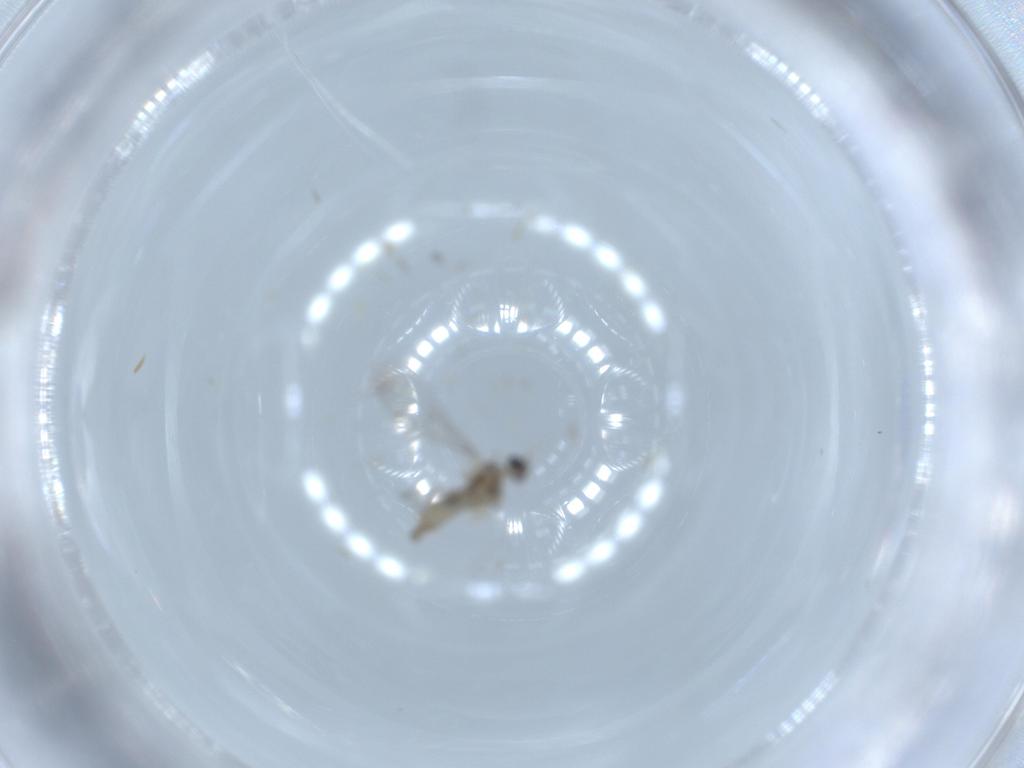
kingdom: Animalia
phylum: Arthropoda
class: Insecta
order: Diptera
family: Cecidomyiidae
